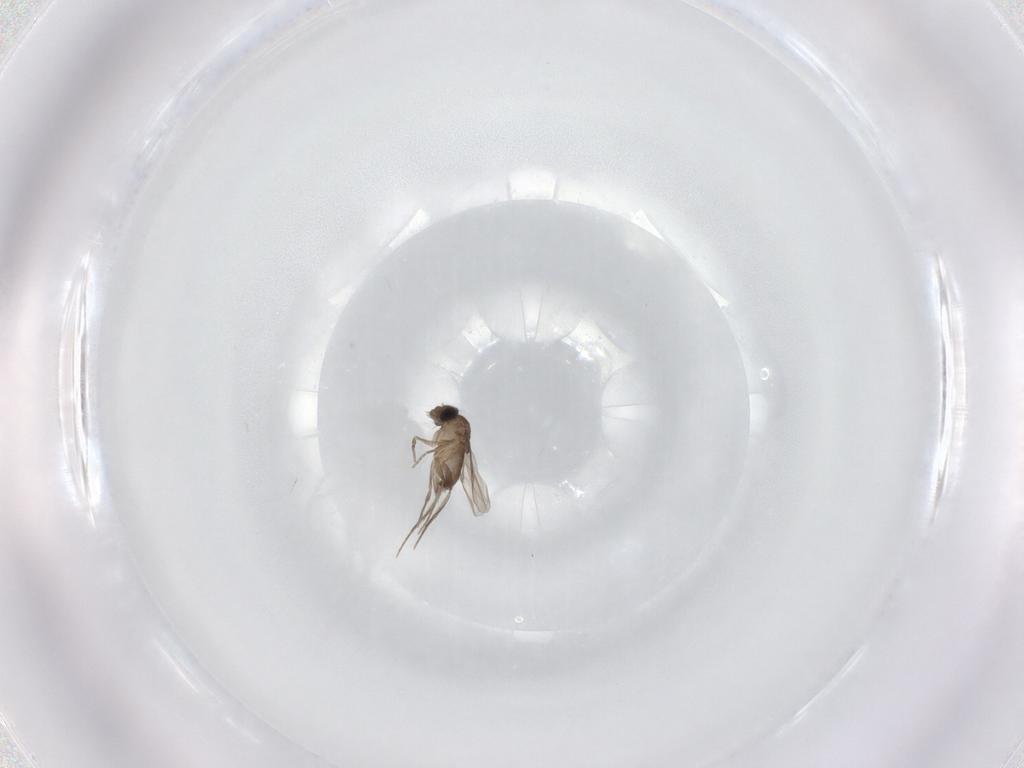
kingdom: Animalia
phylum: Arthropoda
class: Insecta
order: Diptera
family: Phoridae
